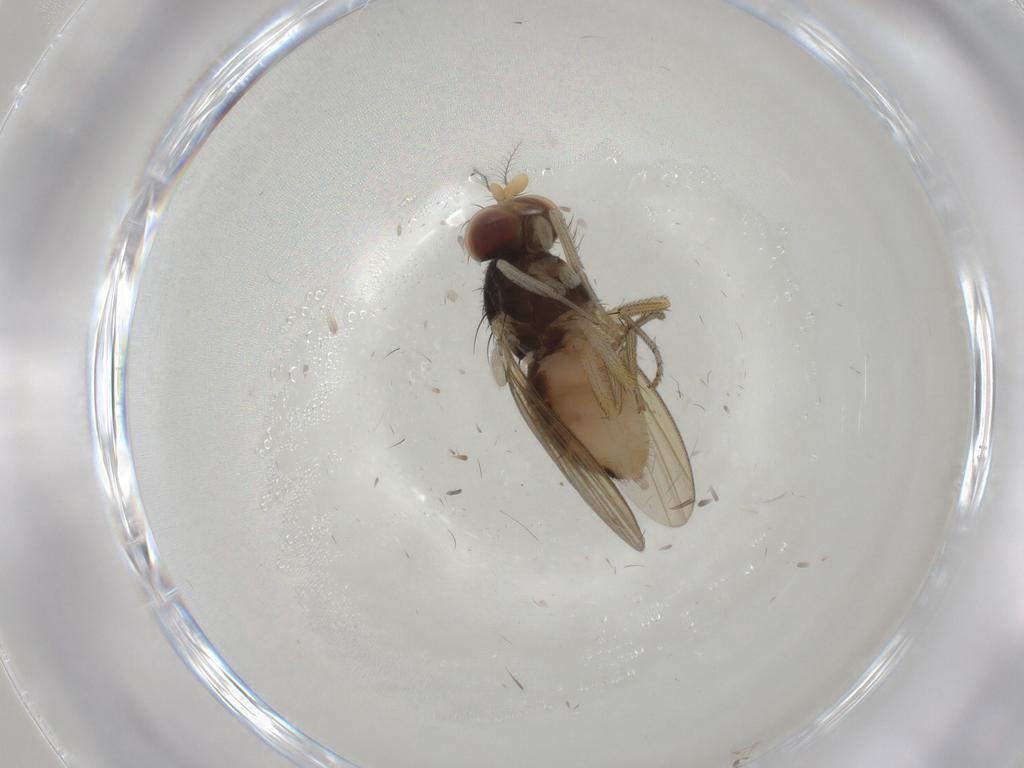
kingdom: Animalia
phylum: Arthropoda
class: Insecta
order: Diptera
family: Lauxaniidae
